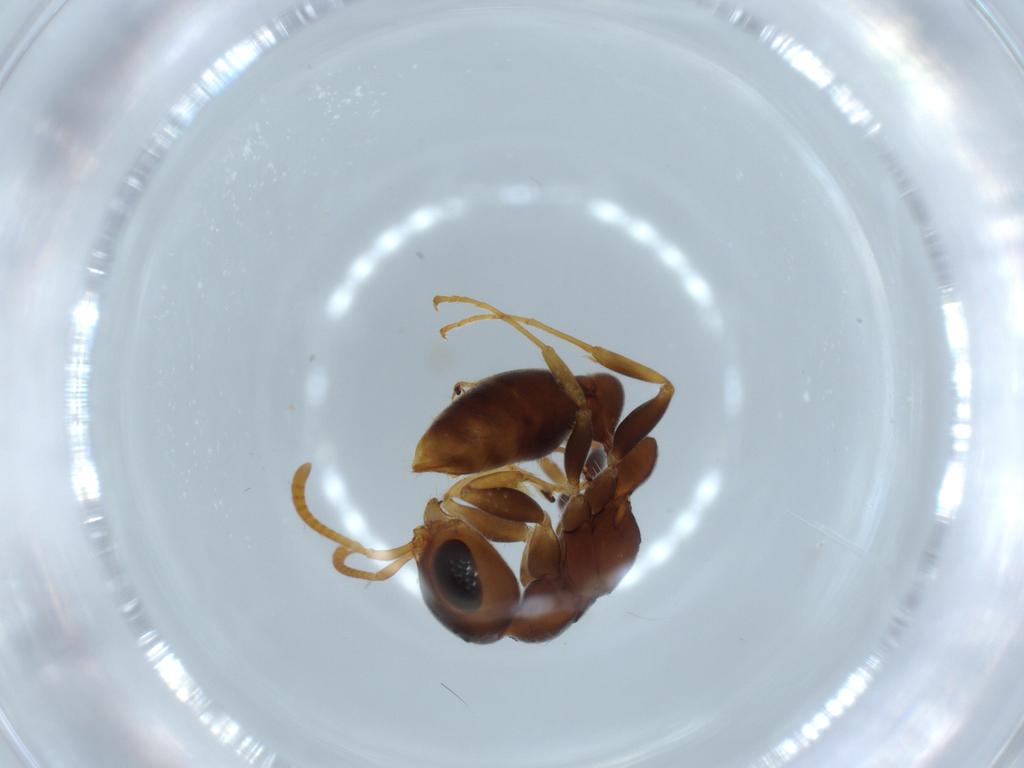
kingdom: Animalia
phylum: Arthropoda
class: Insecta
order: Hymenoptera
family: Formicidae
